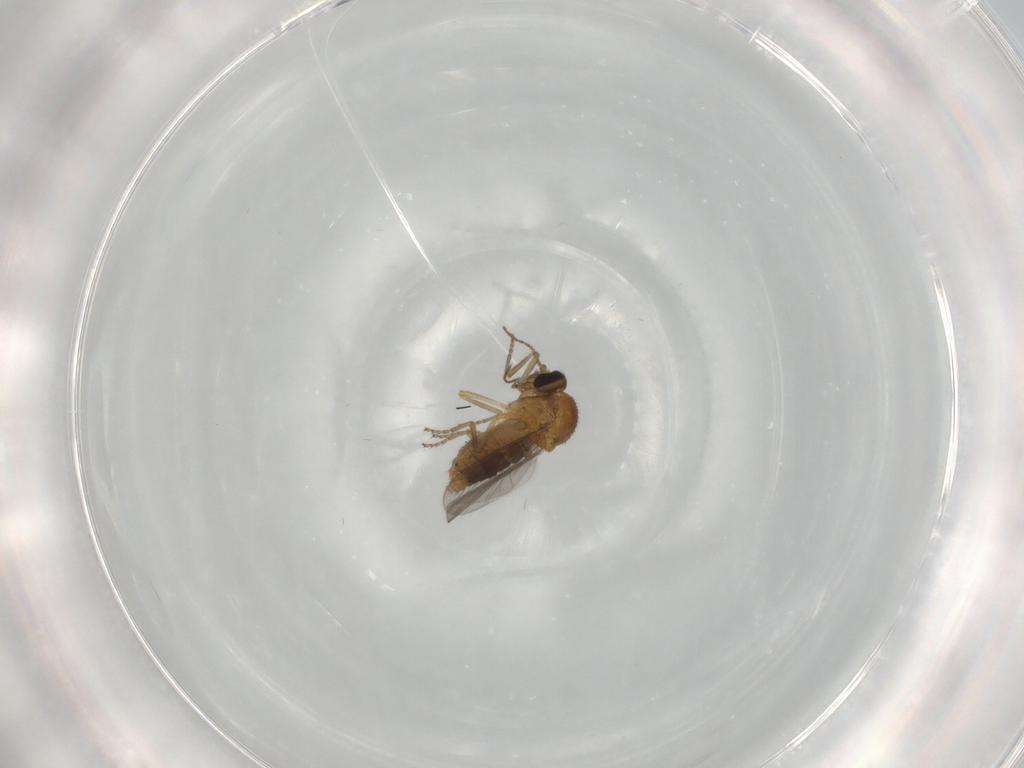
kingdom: Animalia
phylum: Arthropoda
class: Insecta
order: Diptera
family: Ceratopogonidae
